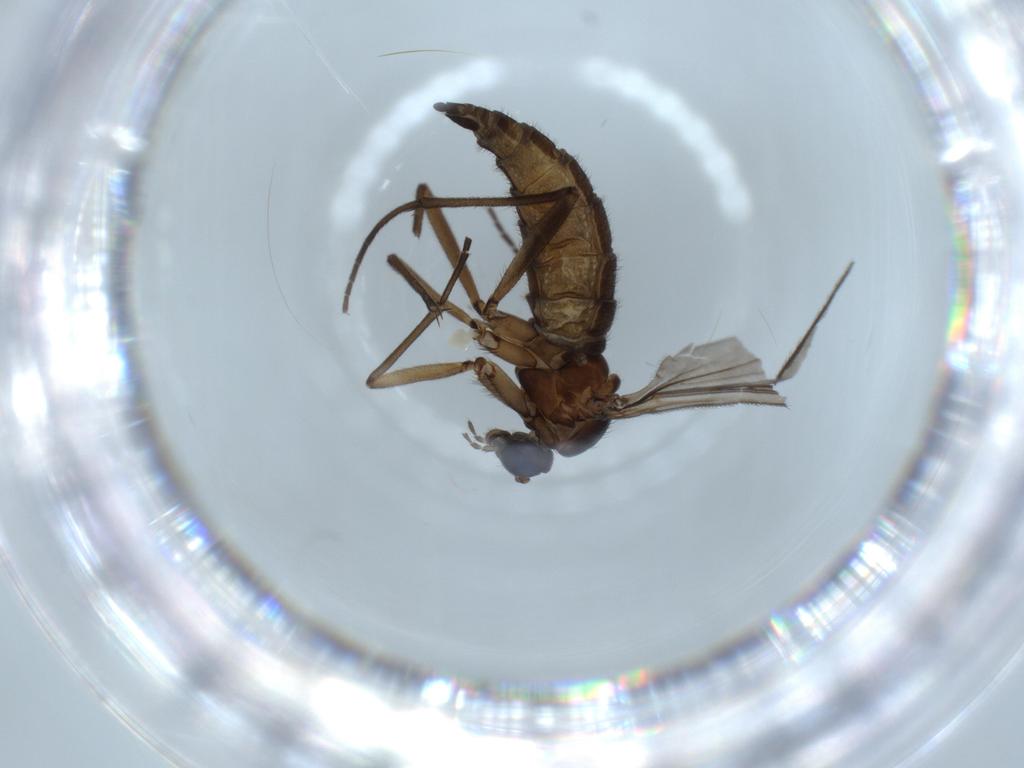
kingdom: Animalia
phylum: Arthropoda
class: Insecta
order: Diptera
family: Sciaridae
